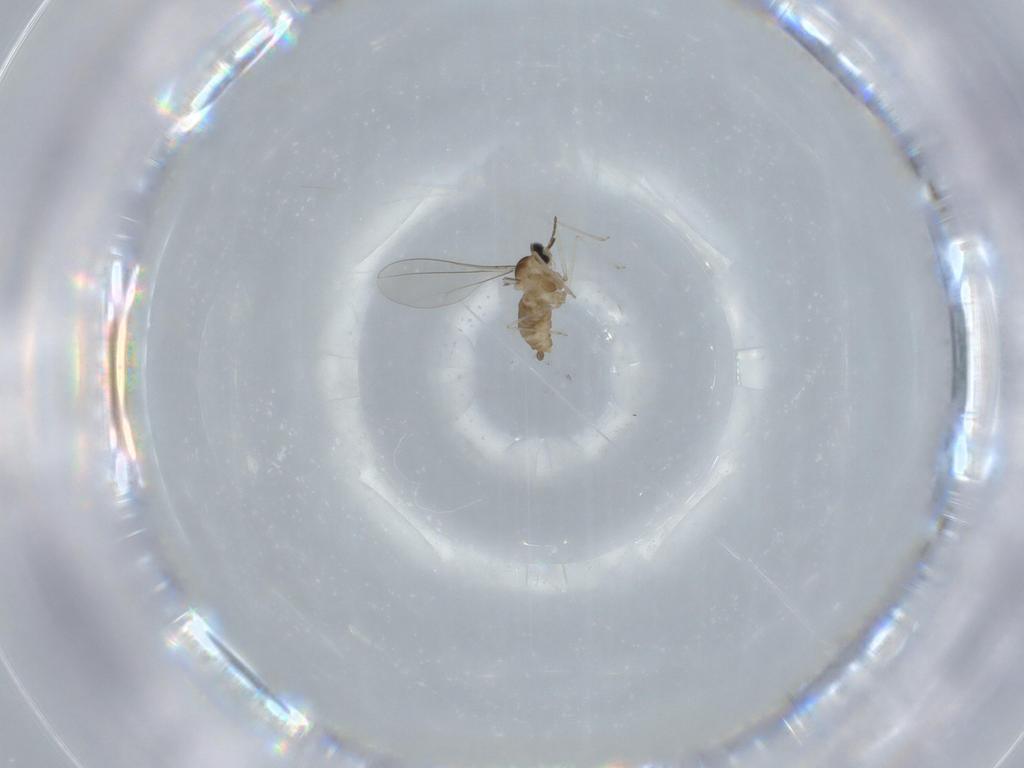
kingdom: Animalia
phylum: Arthropoda
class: Insecta
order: Diptera
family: Cecidomyiidae
